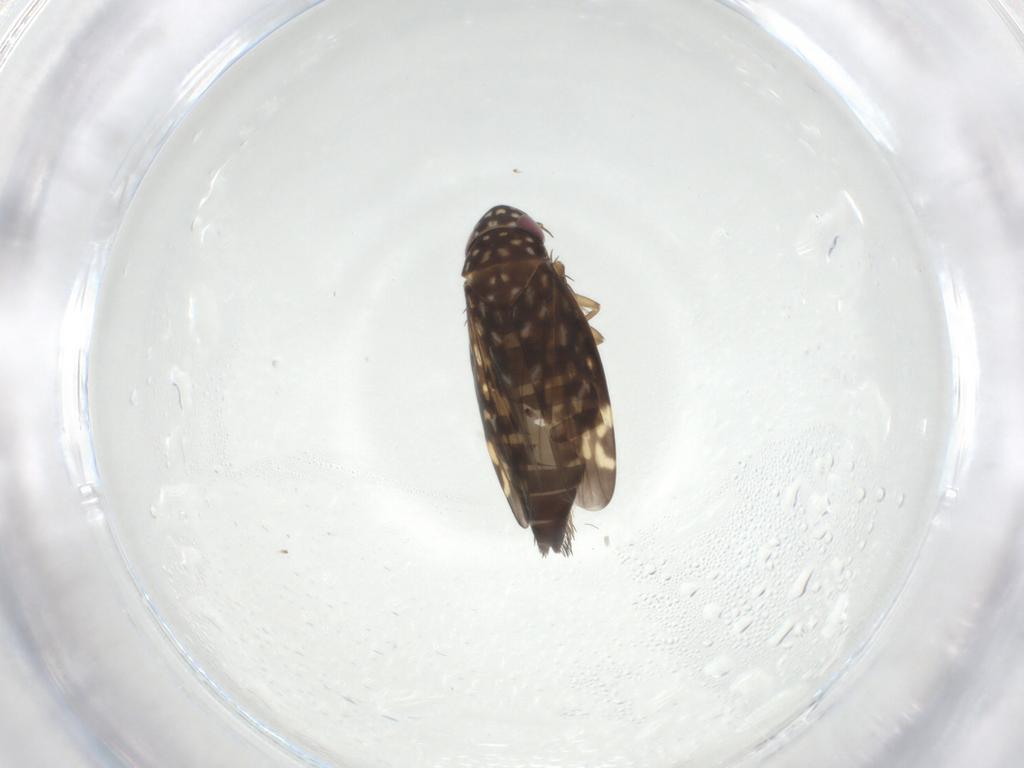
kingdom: Animalia
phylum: Arthropoda
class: Insecta
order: Hemiptera
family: Cicadellidae
